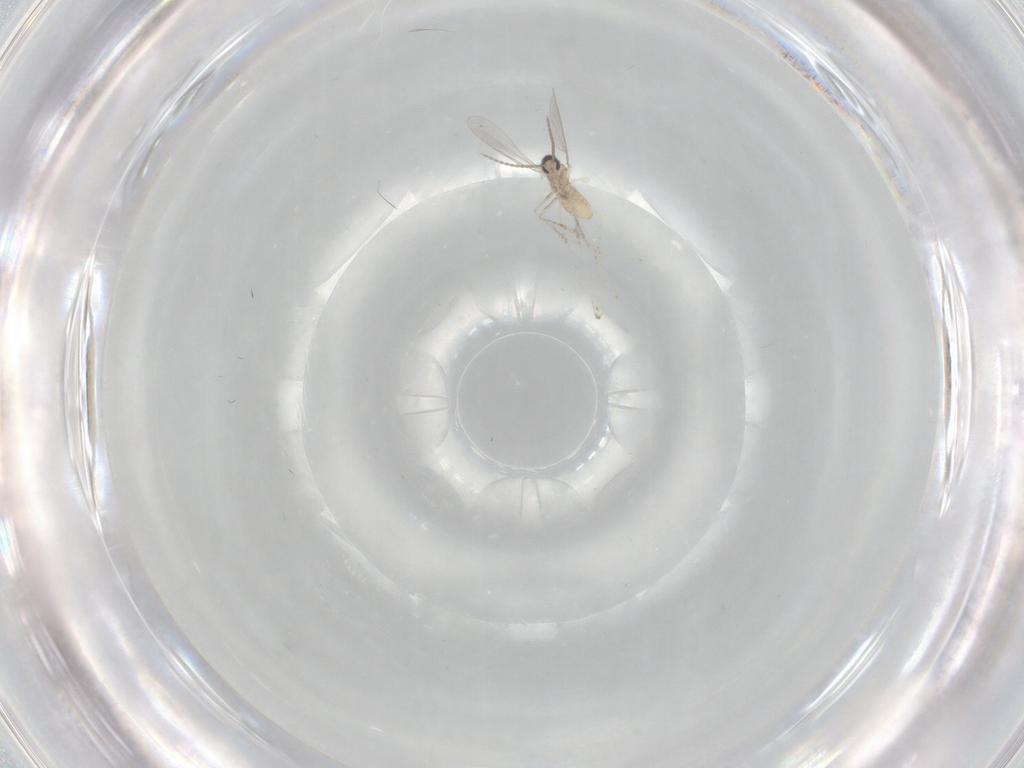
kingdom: Animalia
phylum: Arthropoda
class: Insecta
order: Diptera
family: Cecidomyiidae
